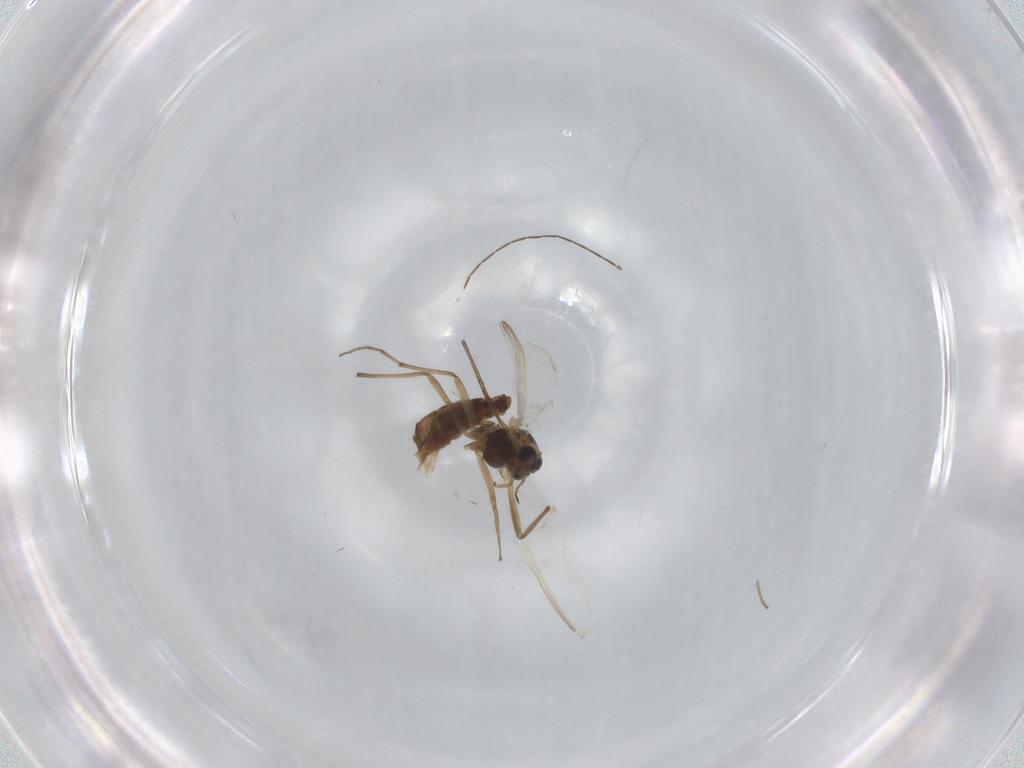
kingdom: Animalia
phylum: Arthropoda
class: Insecta
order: Diptera
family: Chironomidae
